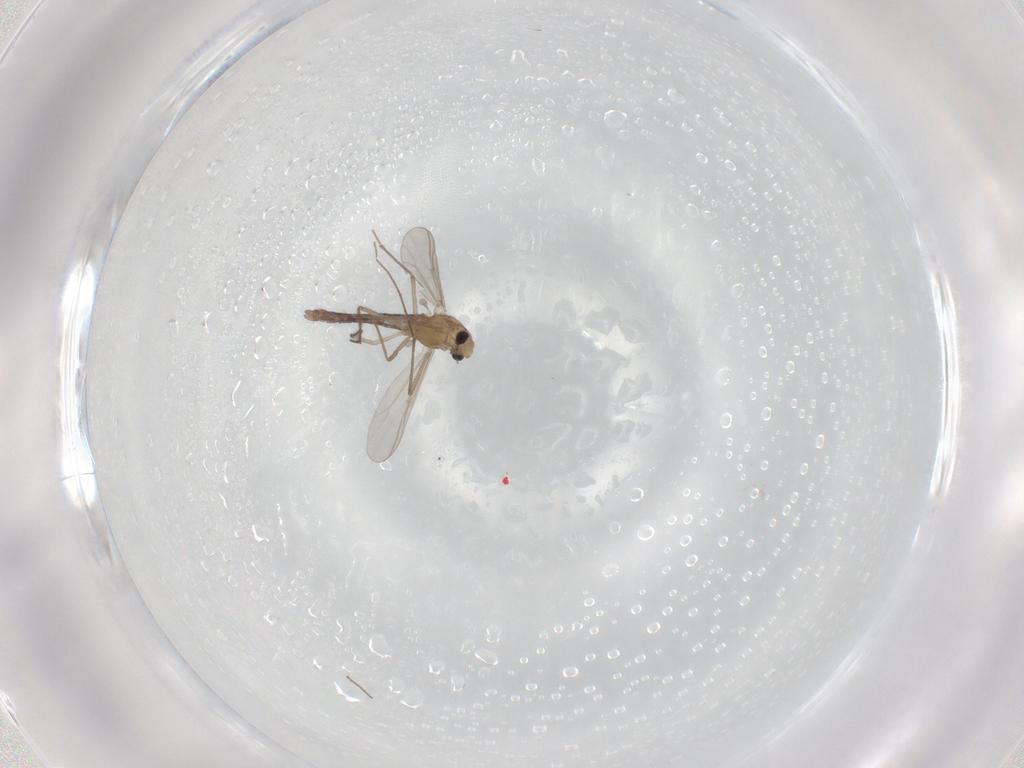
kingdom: Animalia
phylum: Arthropoda
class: Insecta
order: Diptera
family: Chironomidae
